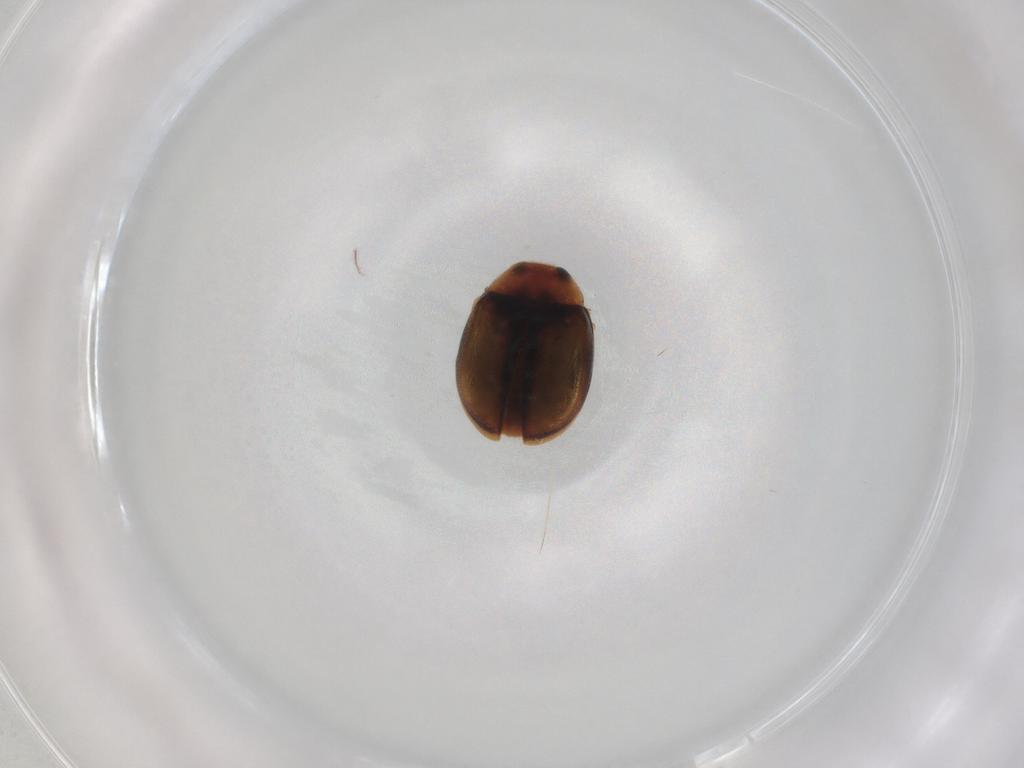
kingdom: Animalia
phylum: Arthropoda
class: Insecta
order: Coleoptera
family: Coccinellidae
